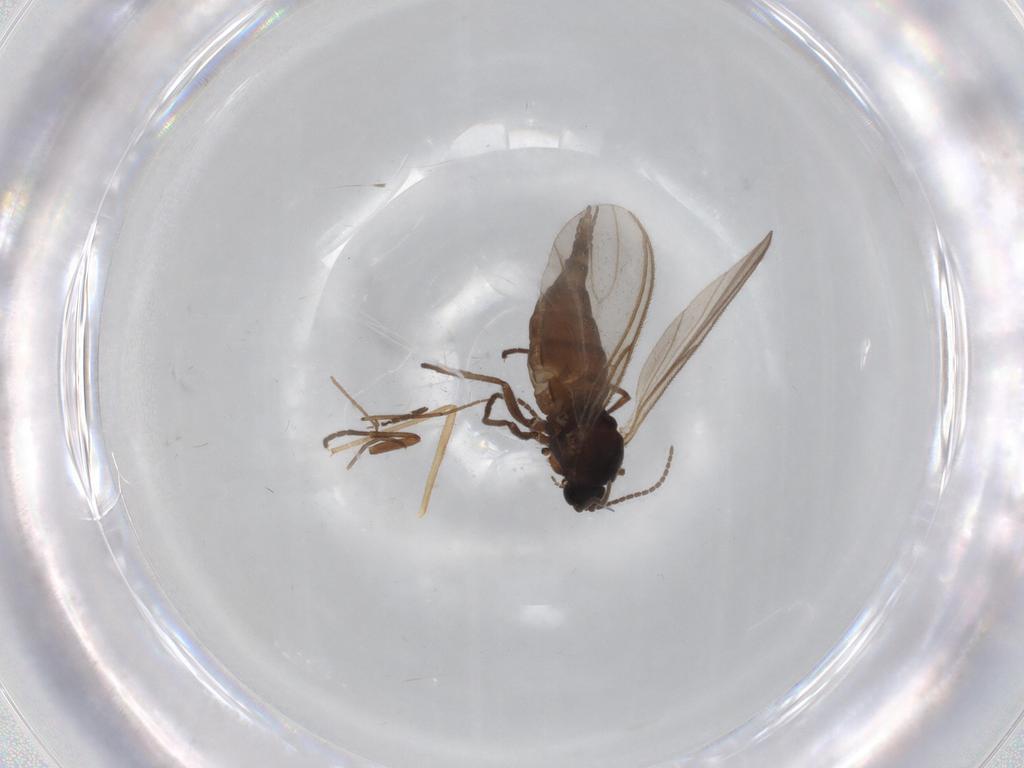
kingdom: Animalia
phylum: Arthropoda
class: Insecta
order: Diptera
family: Sciaridae
